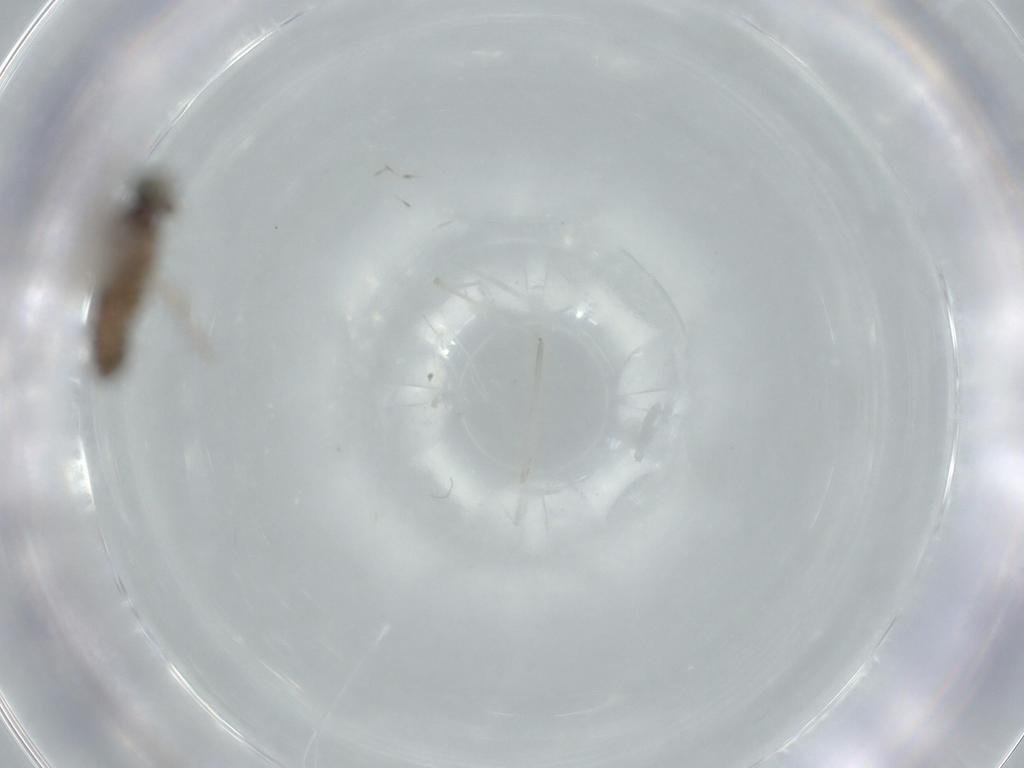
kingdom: Animalia
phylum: Arthropoda
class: Insecta
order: Diptera
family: Cecidomyiidae
